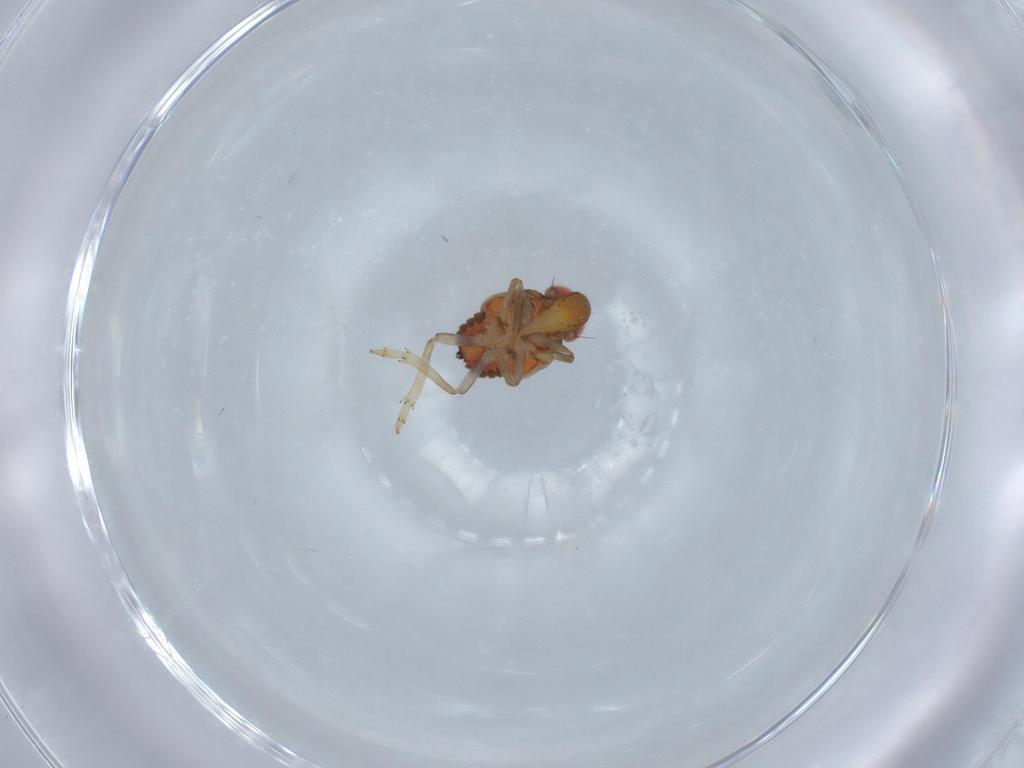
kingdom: Animalia
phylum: Arthropoda
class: Insecta
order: Hemiptera
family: Issidae
